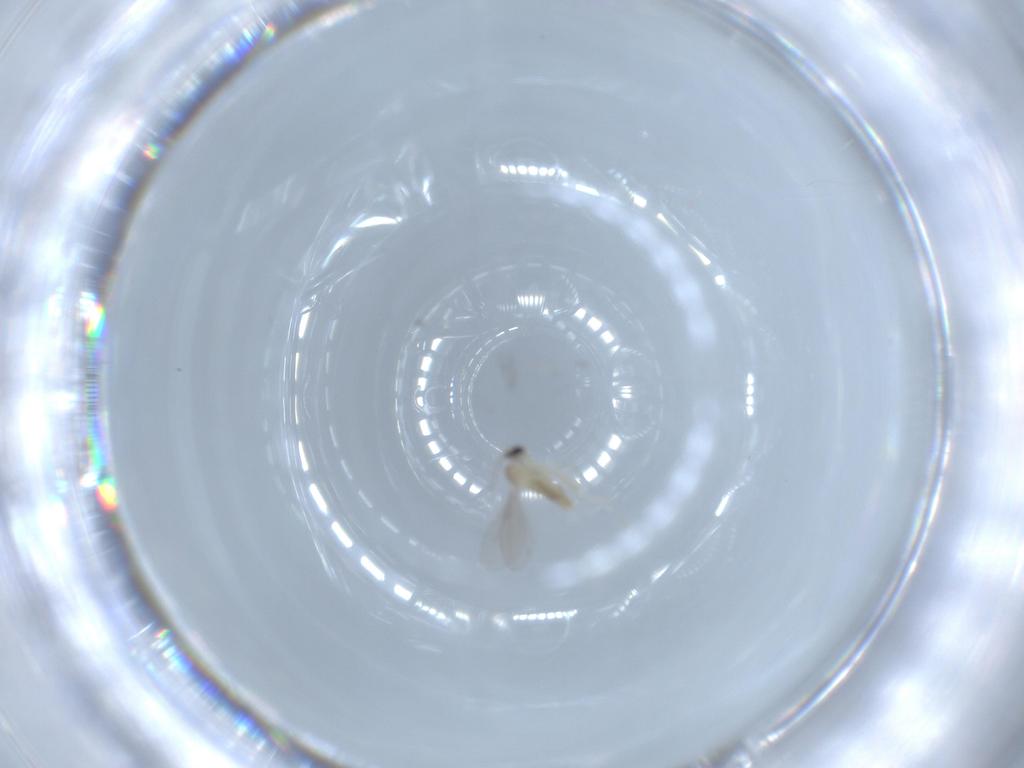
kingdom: Animalia
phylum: Arthropoda
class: Insecta
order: Diptera
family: Cecidomyiidae
